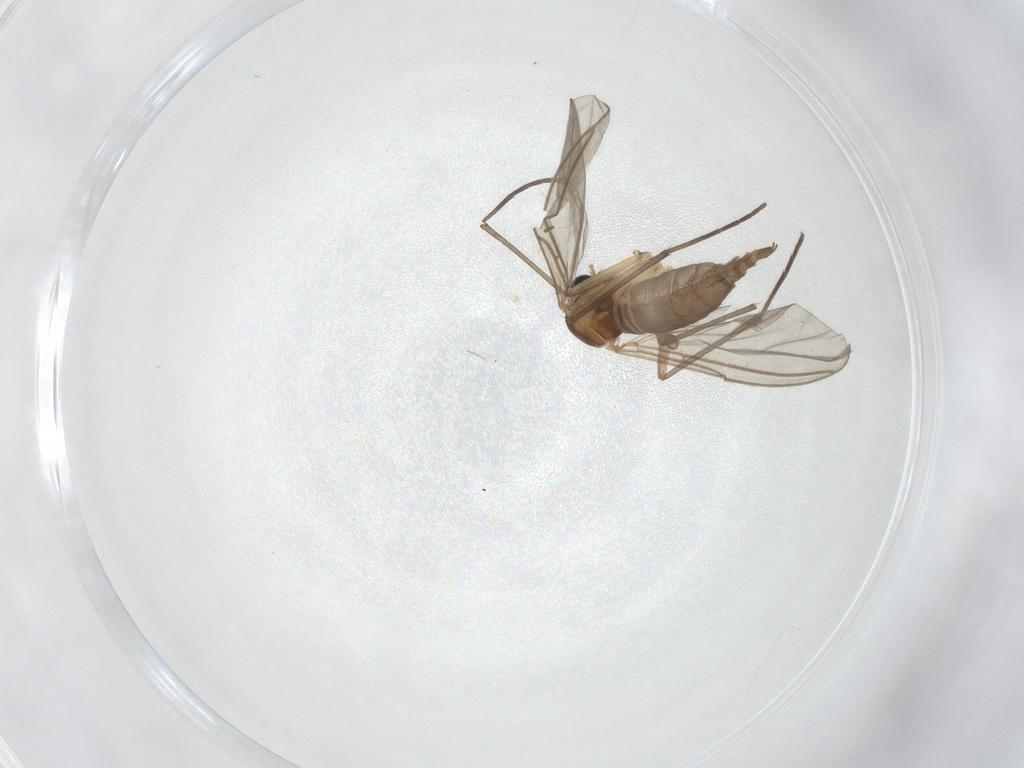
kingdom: Animalia
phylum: Arthropoda
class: Insecta
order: Diptera
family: Sciaridae
